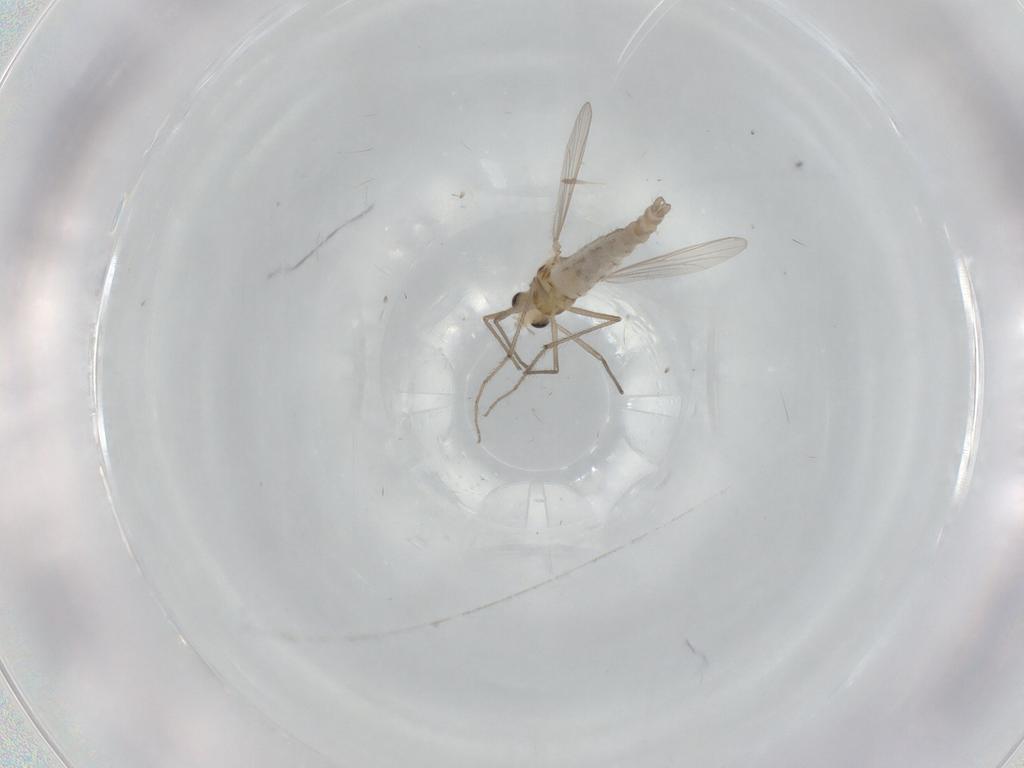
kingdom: Animalia
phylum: Arthropoda
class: Insecta
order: Diptera
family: Chironomidae
